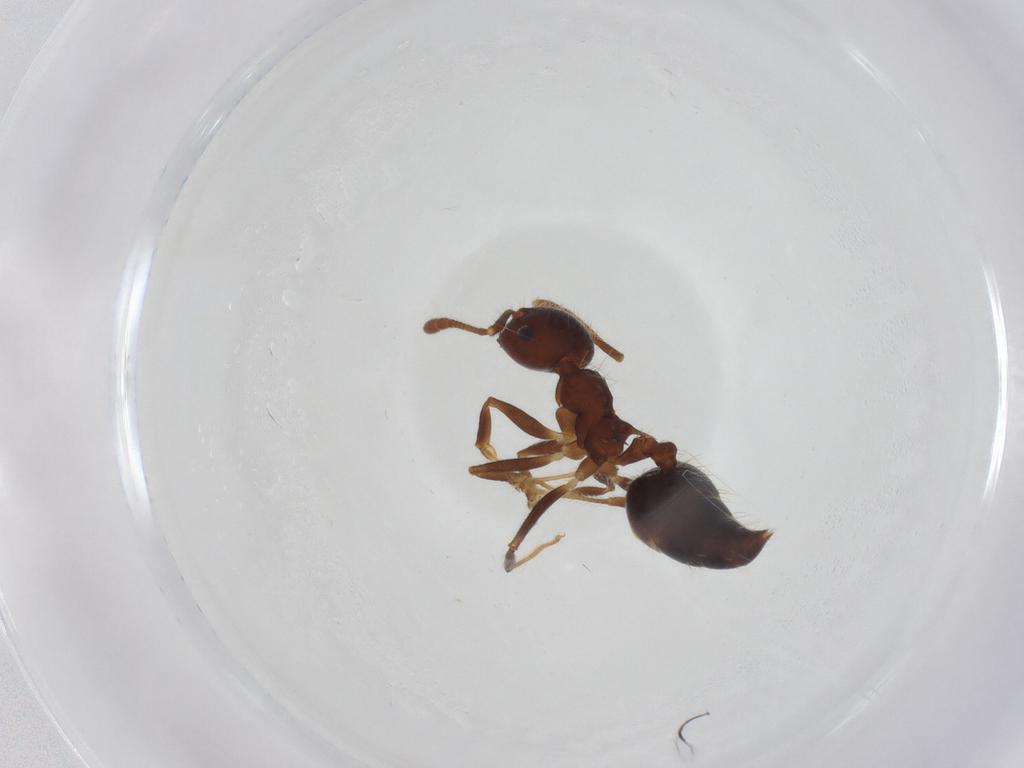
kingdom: Animalia
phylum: Arthropoda
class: Insecta
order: Hymenoptera
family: Formicidae
